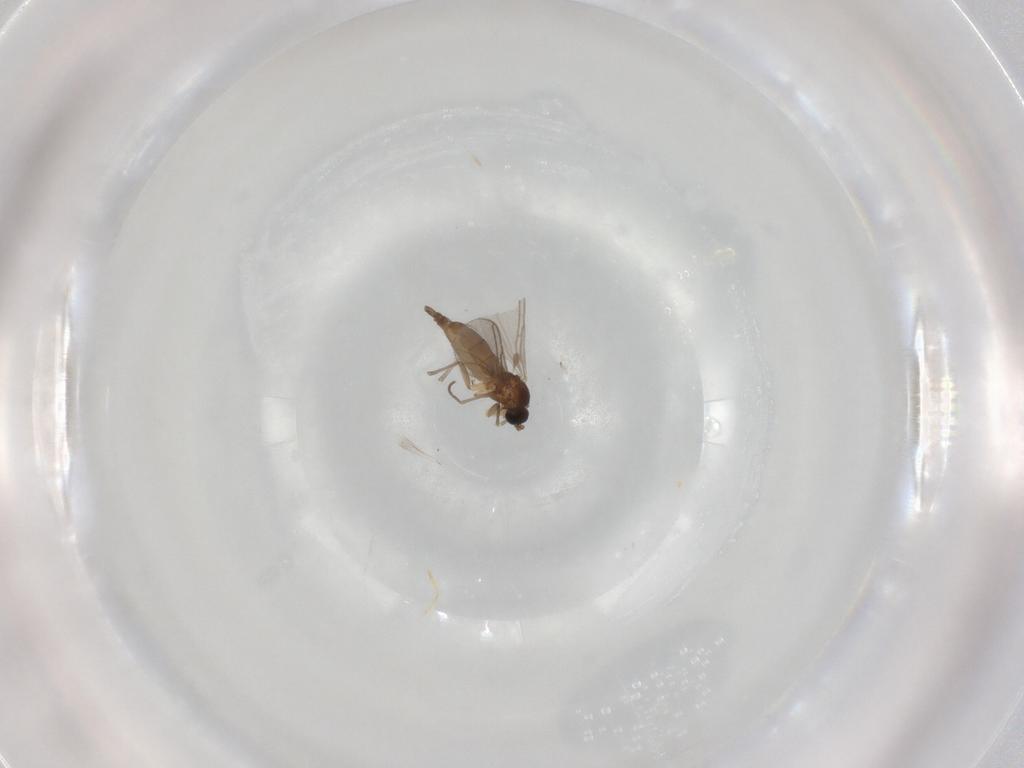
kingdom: Animalia
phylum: Arthropoda
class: Insecta
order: Diptera
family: Sciaridae
